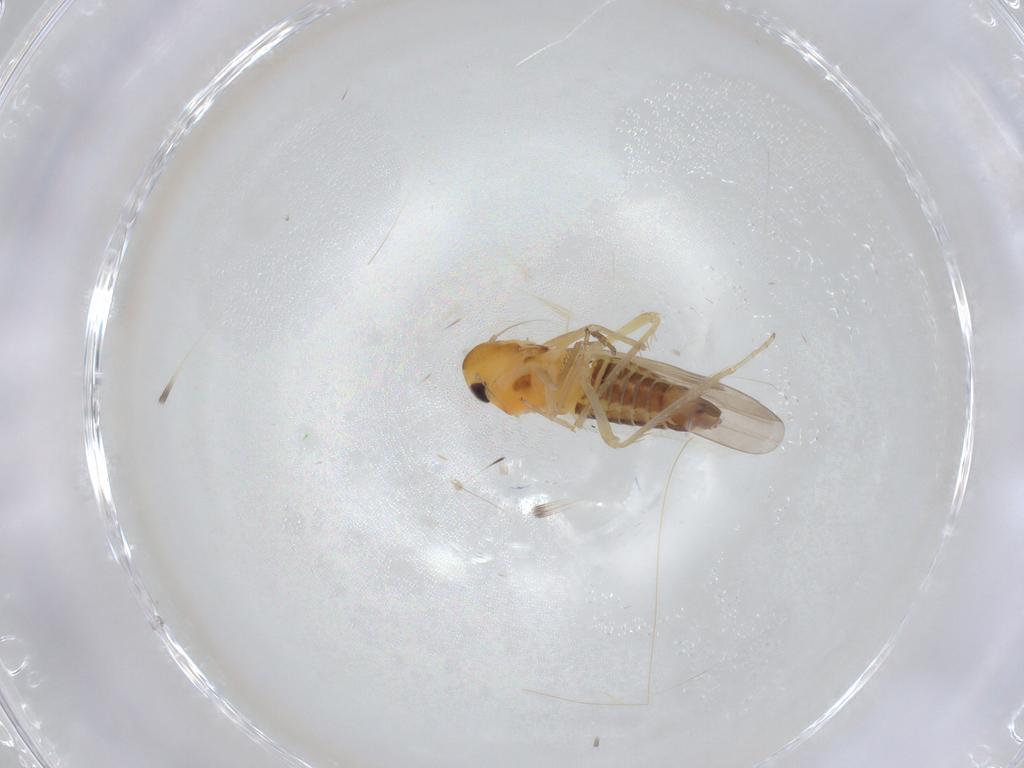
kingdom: Animalia
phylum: Arthropoda
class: Insecta
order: Hemiptera
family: Cicadellidae
